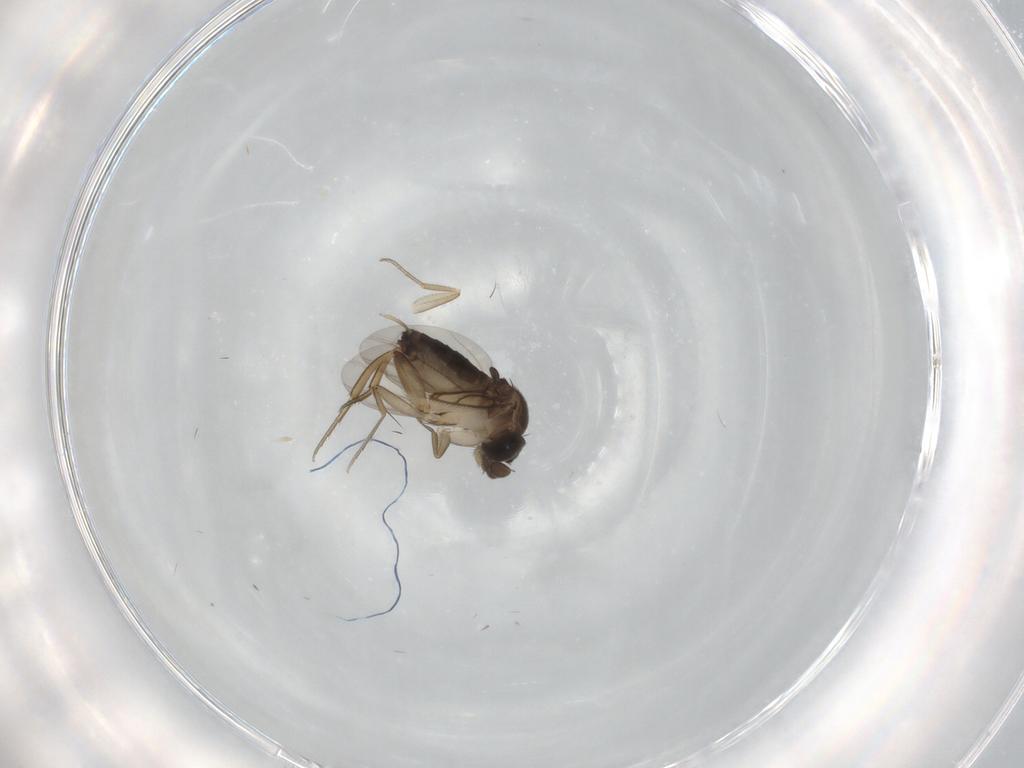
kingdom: Animalia
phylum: Arthropoda
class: Insecta
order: Diptera
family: Phoridae
